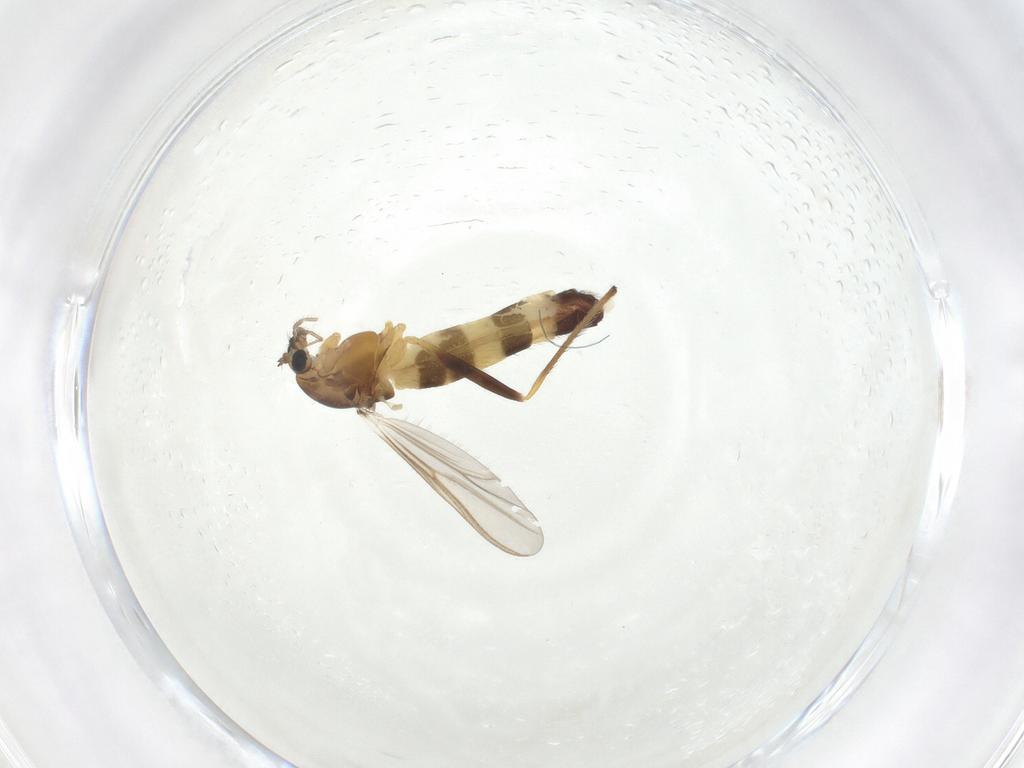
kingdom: Animalia
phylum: Arthropoda
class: Insecta
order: Diptera
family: Chironomidae
